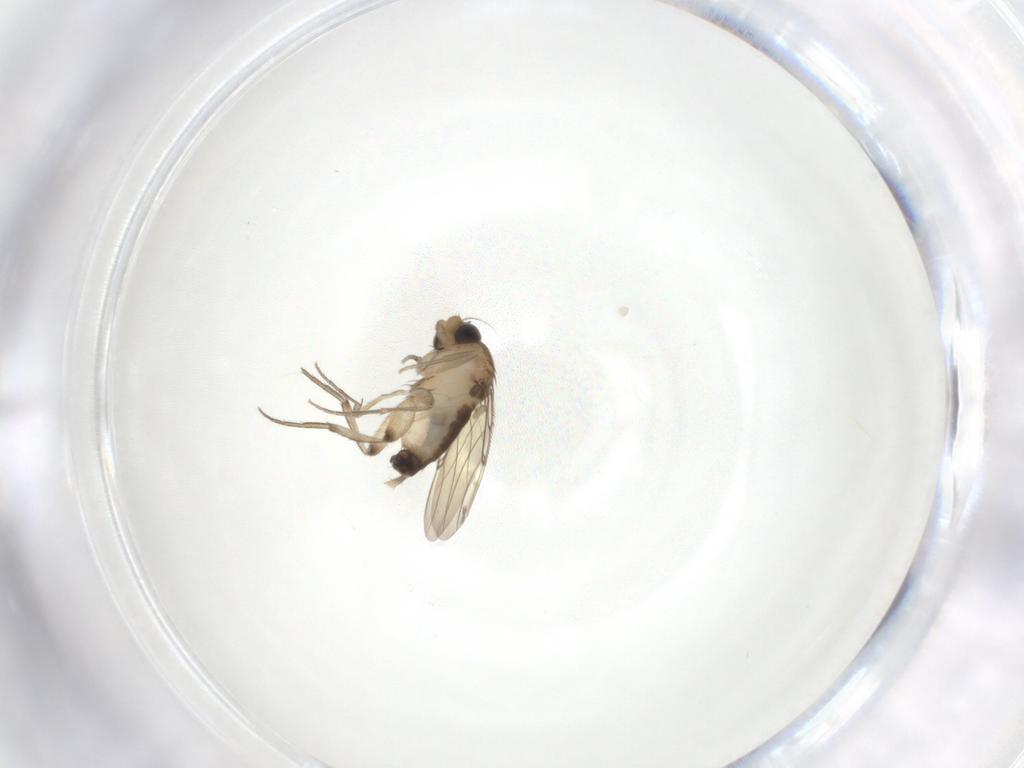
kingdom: Animalia
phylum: Arthropoda
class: Insecta
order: Diptera
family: Phoridae
